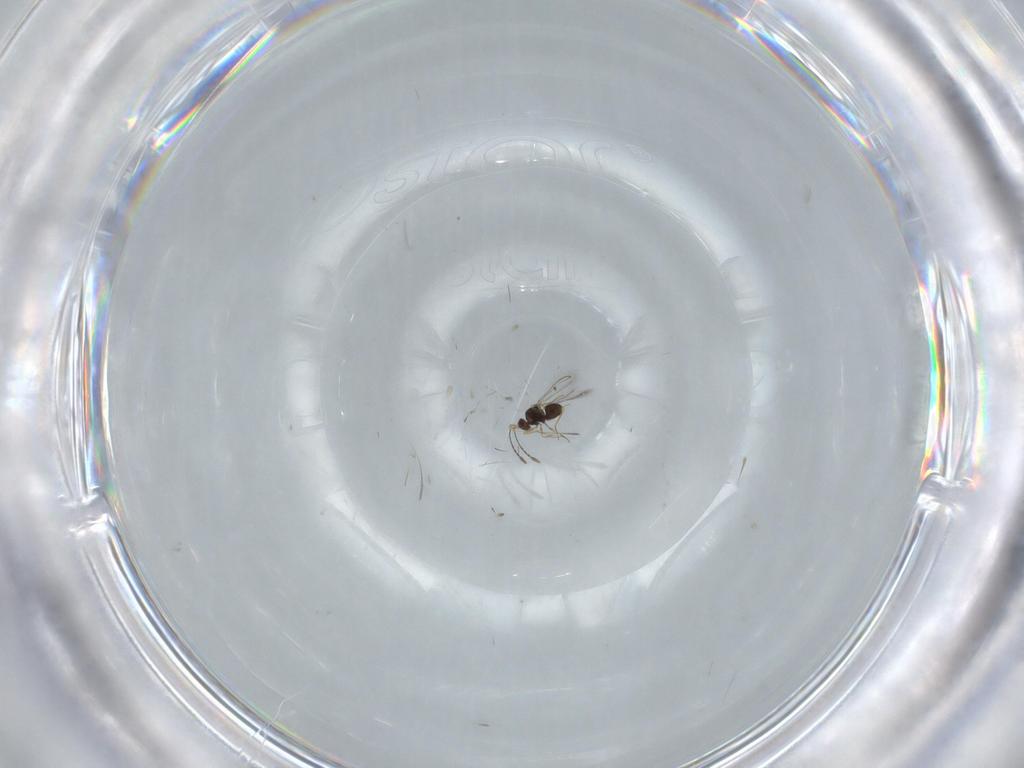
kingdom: Animalia
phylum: Arthropoda
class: Insecta
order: Hymenoptera
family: Mymaridae
